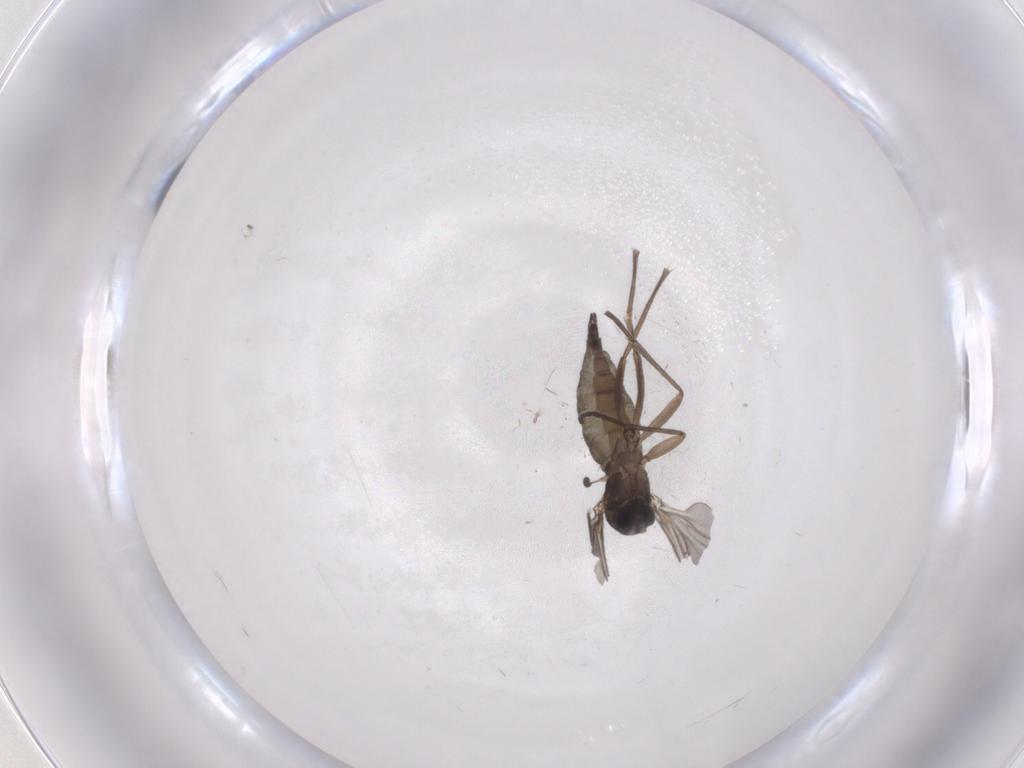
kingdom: Animalia
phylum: Arthropoda
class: Insecta
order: Diptera
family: Sciaridae
